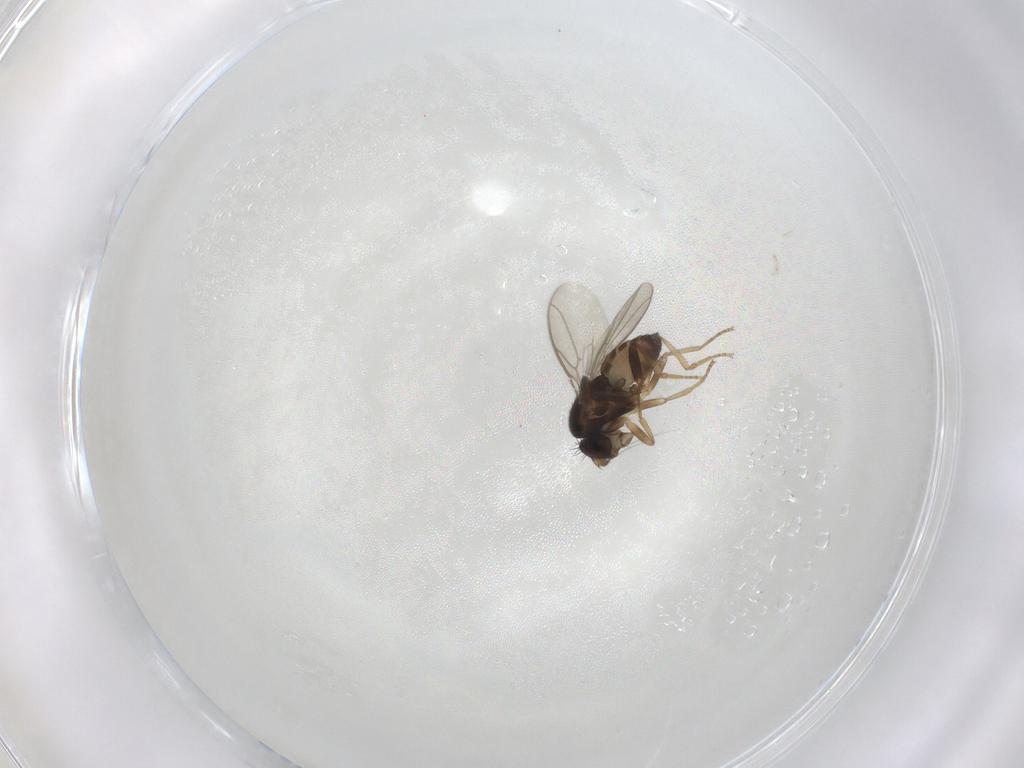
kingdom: Animalia
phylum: Arthropoda
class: Insecta
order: Diptera
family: Sphaeroceridae
